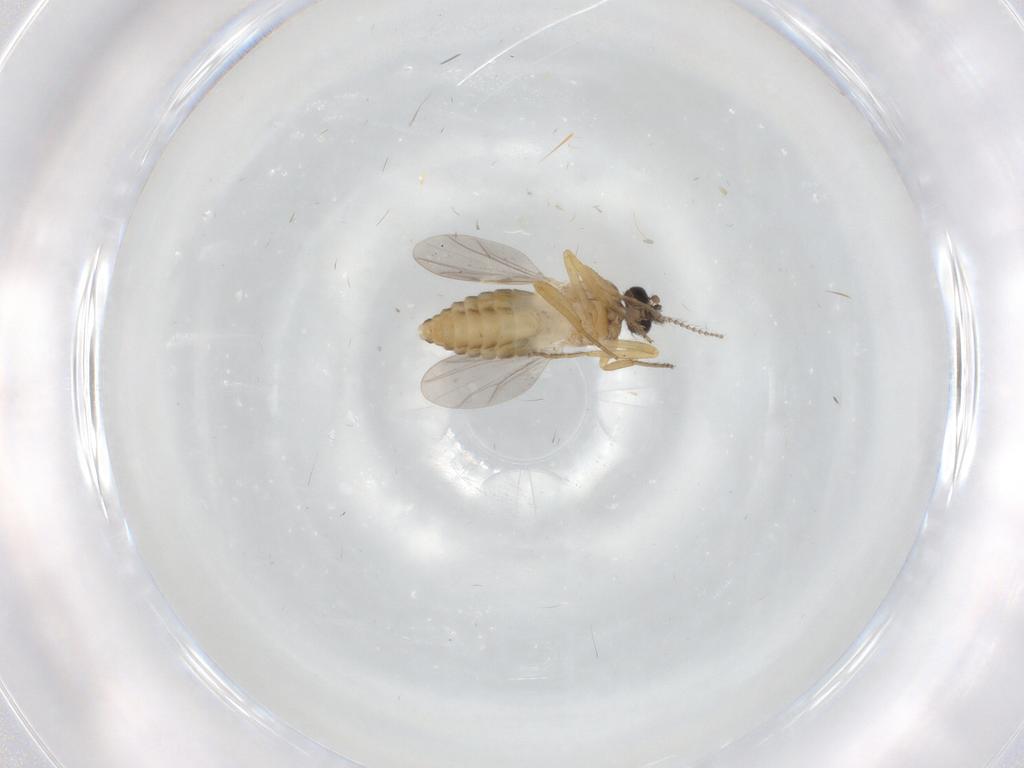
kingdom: Animalia
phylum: Arthropoda
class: Insecta
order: Diptera
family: Ceratopogonidae
